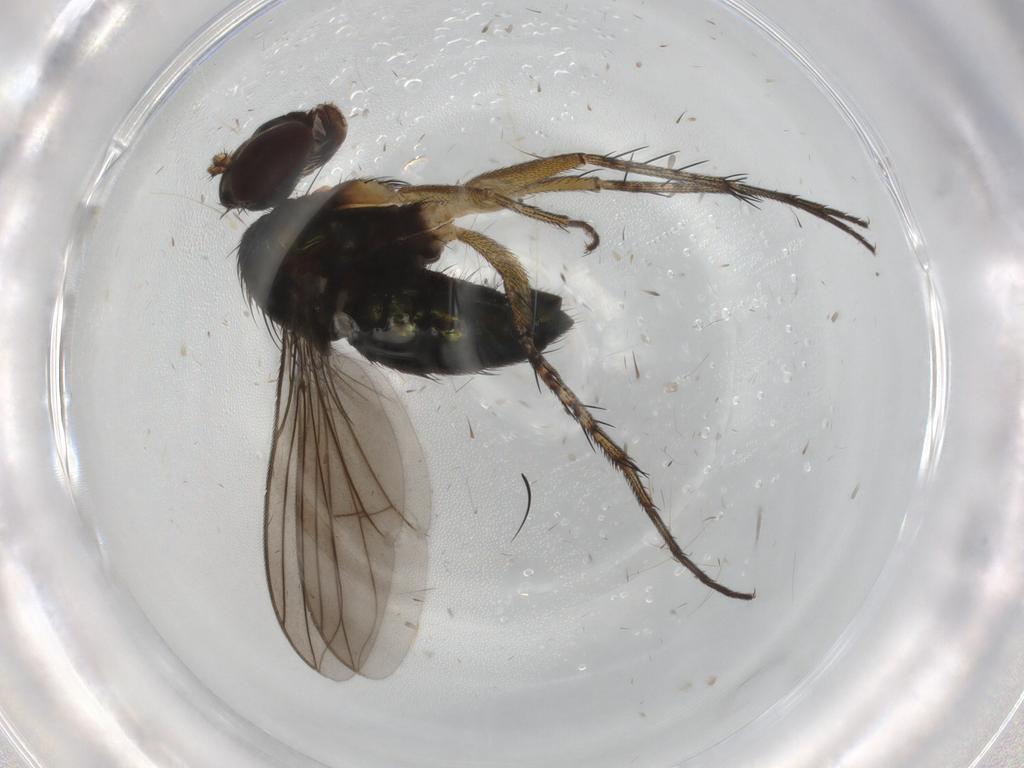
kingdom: Animalia
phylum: Arthropoda
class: Insecta
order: Diptera
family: Dolichopodidae
